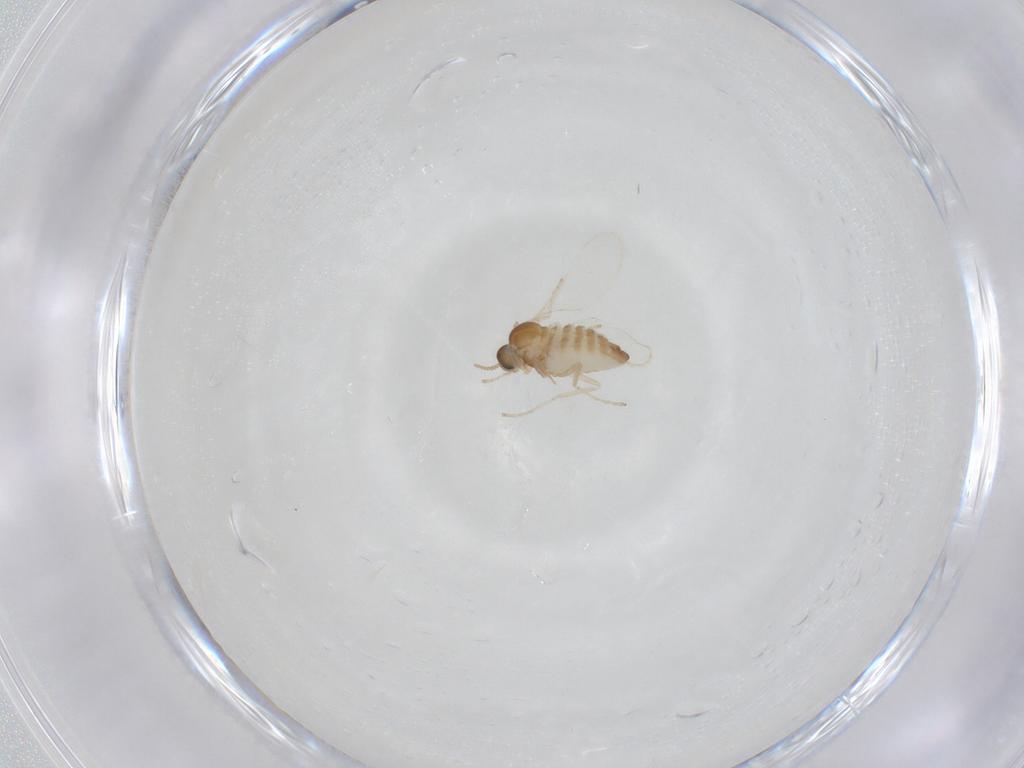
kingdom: Animalia
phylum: Arthropoda
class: Insecta
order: Diptera
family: Cecidomyiidae
